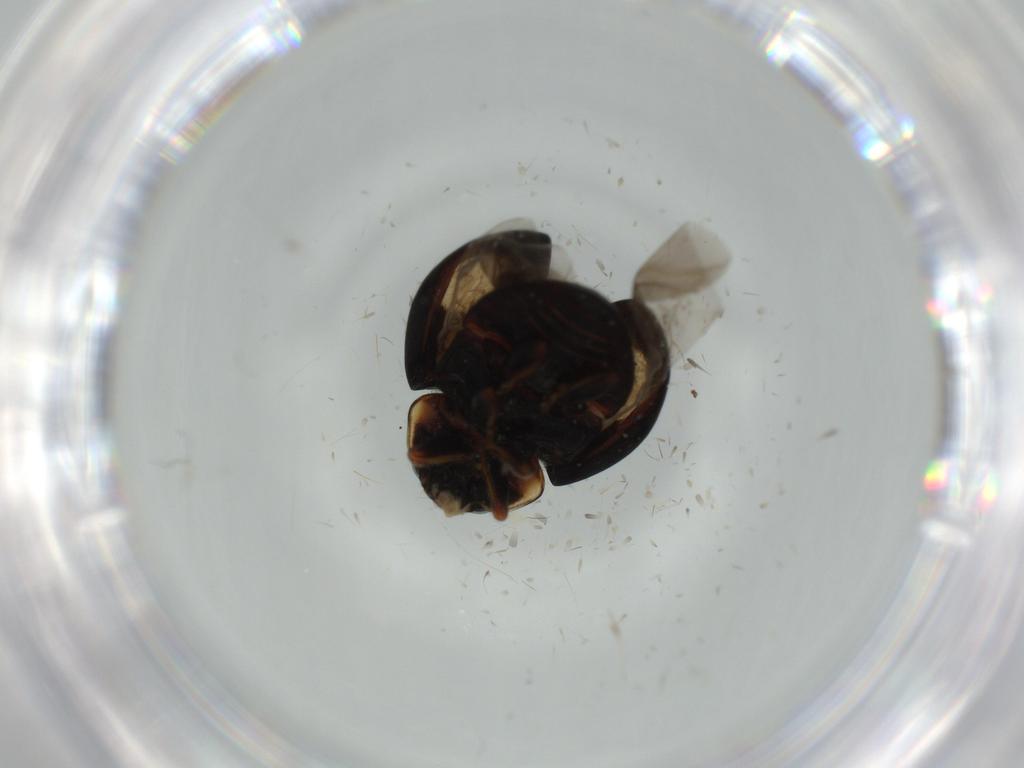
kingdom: Animalia
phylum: Arthropoda
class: Insecta
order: Coleoptera
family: Coccinellidae
